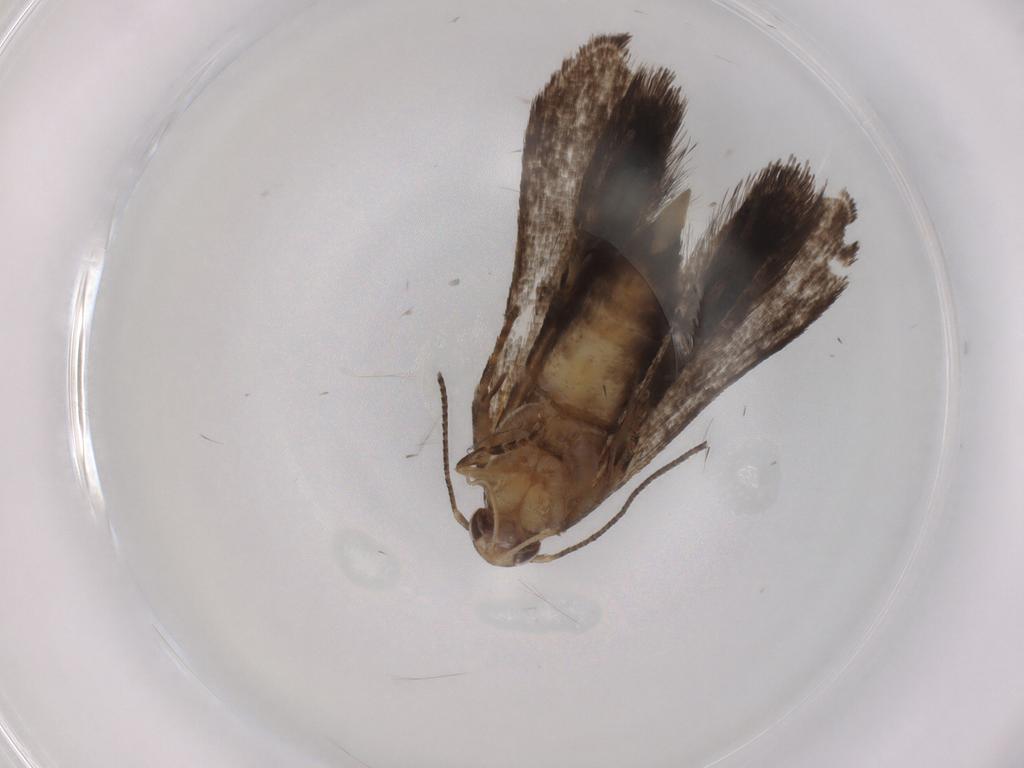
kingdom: Animalia
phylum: Arthropoda
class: Insecta
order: Lepidoptera
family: Crambidae
